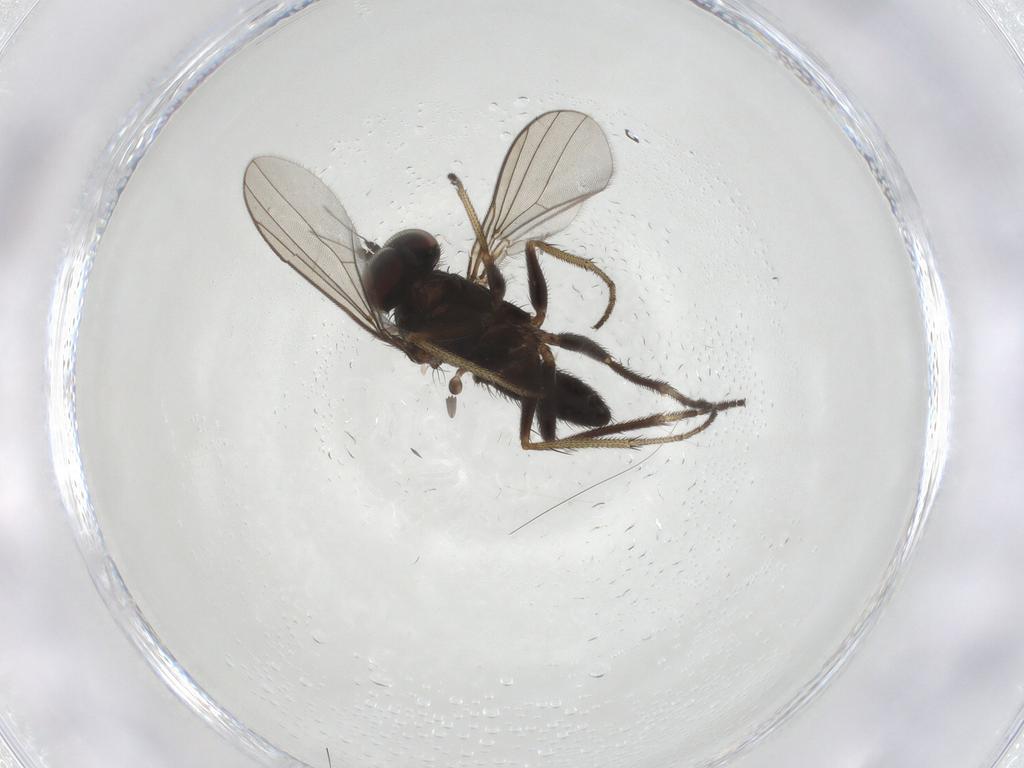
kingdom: Animalia
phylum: Arthropoda
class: Insecta
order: Diptera
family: Dolichopodidae
